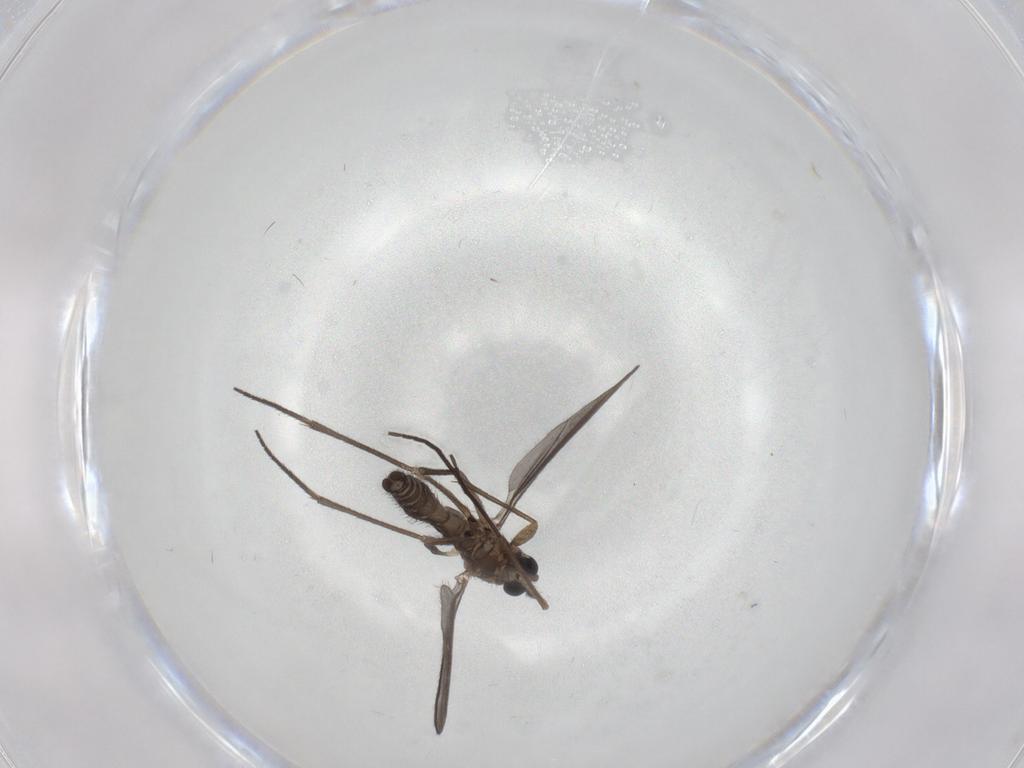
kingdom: Animalia
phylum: Arthropoda
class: Insecta
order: Diptera
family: Sciaridae
